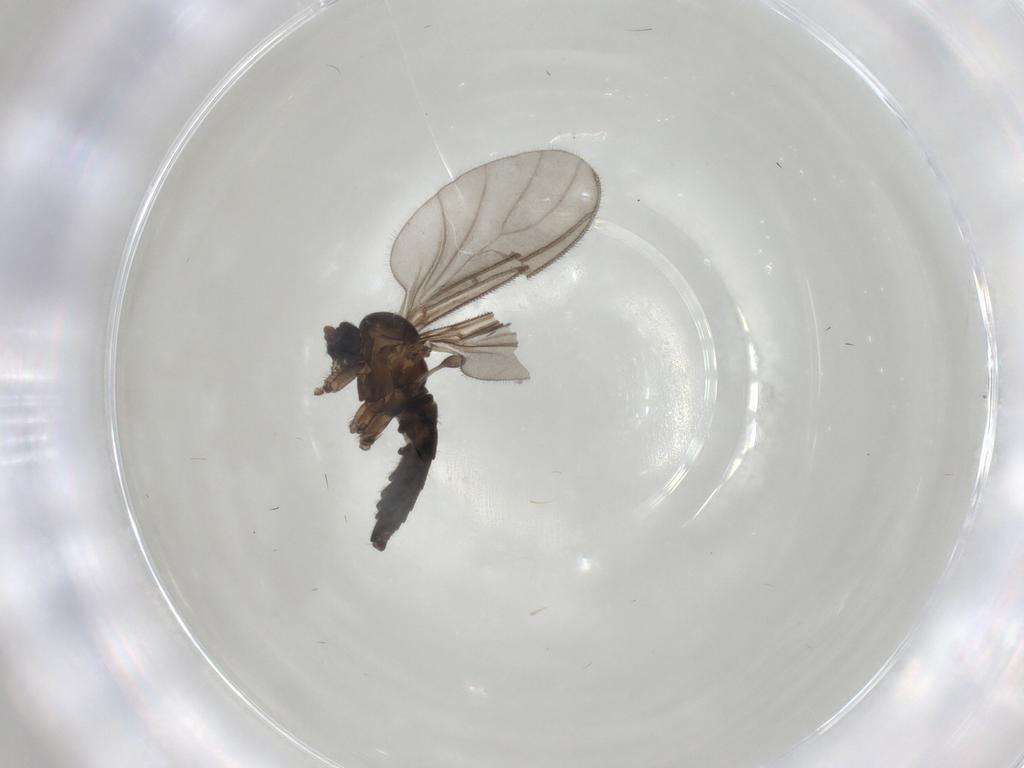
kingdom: Animalia
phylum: Arthropoda
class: Insecta
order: Diptera
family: Sciaridae
